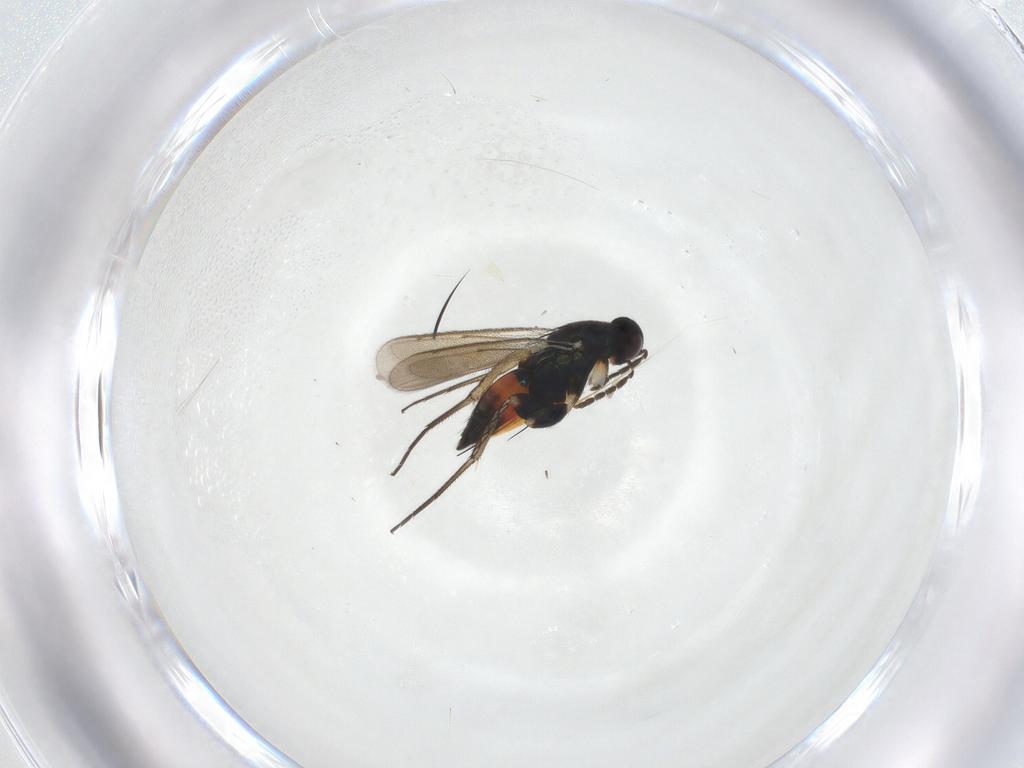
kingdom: Animalia
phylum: Arthropoda
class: Insecta
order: Hymenoptera
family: Eulophidae
